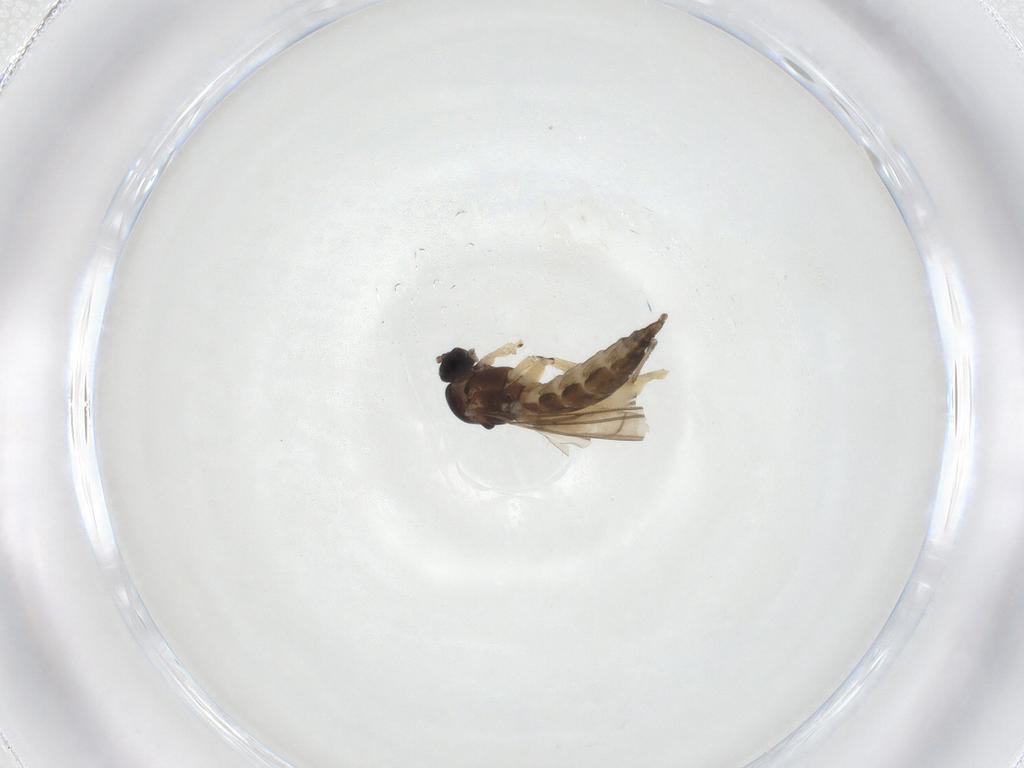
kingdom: Animalia
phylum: Arthropoda
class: Insecta
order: Diptera
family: Sciaridae
